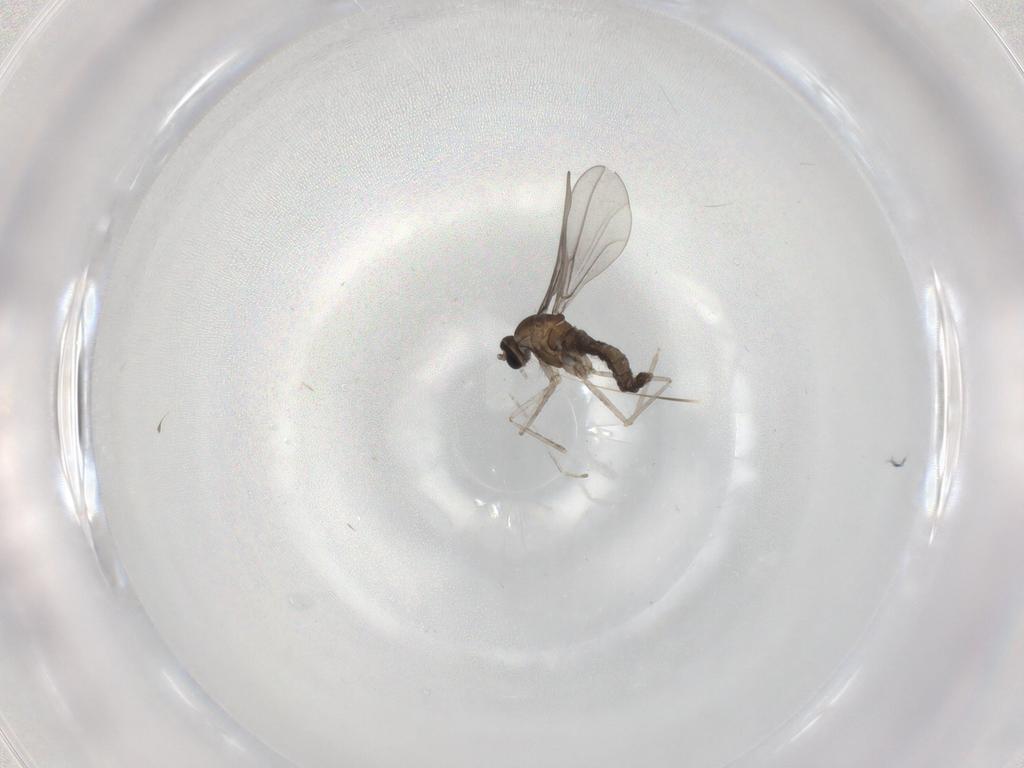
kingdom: Animalia
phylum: Arthropoda
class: Insecta
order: Diptera
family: Cecidomyiidae
